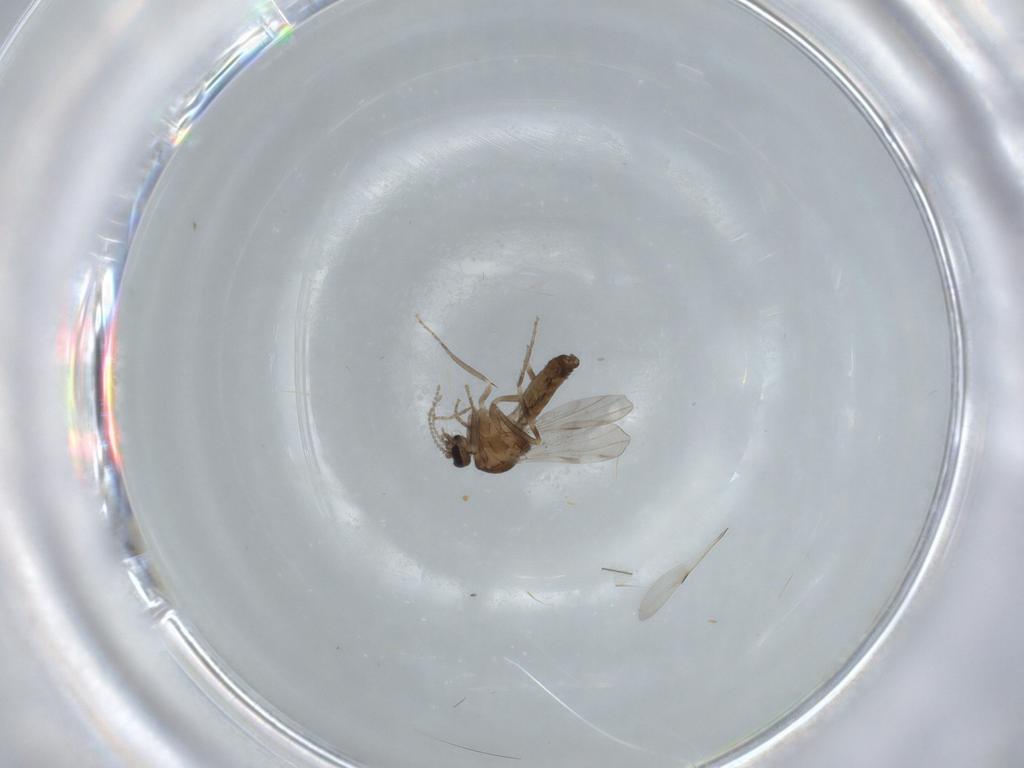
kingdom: Animalia
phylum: Arthropoda
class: Insecta
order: Diptera
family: Ceratopogonidae
